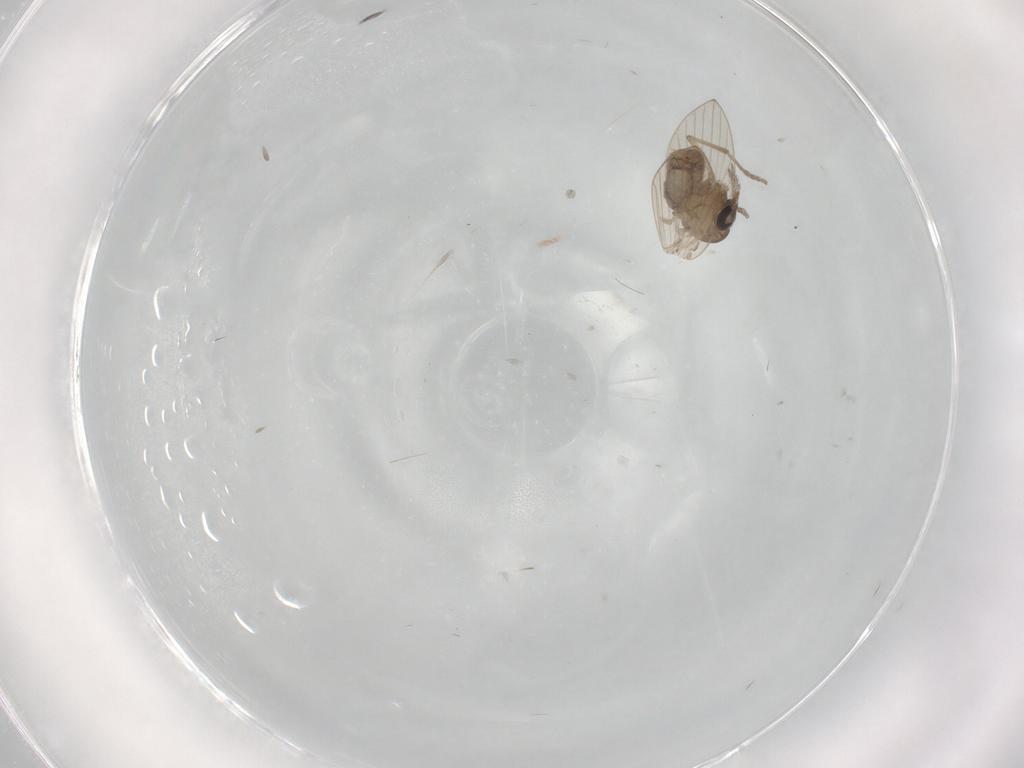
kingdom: Animalia
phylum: Arthropoda
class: Insecta
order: Diptera
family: Psychodidae
